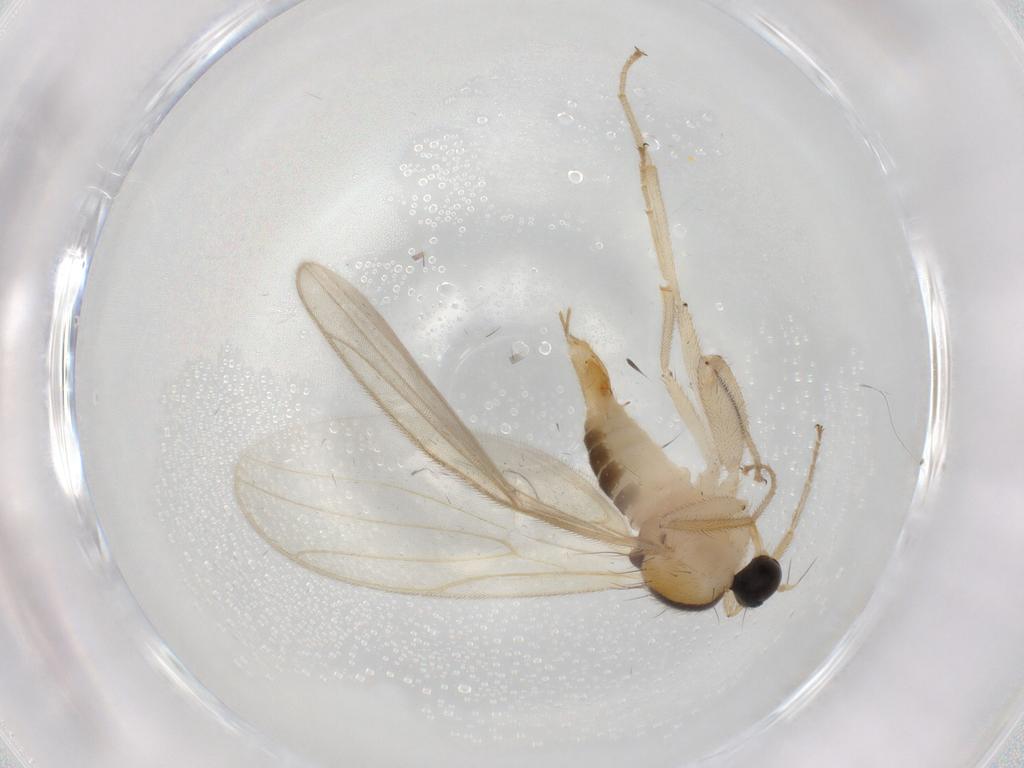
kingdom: Animalia
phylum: Arthropoda
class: Insecta
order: Diptera
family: Hybotidae
